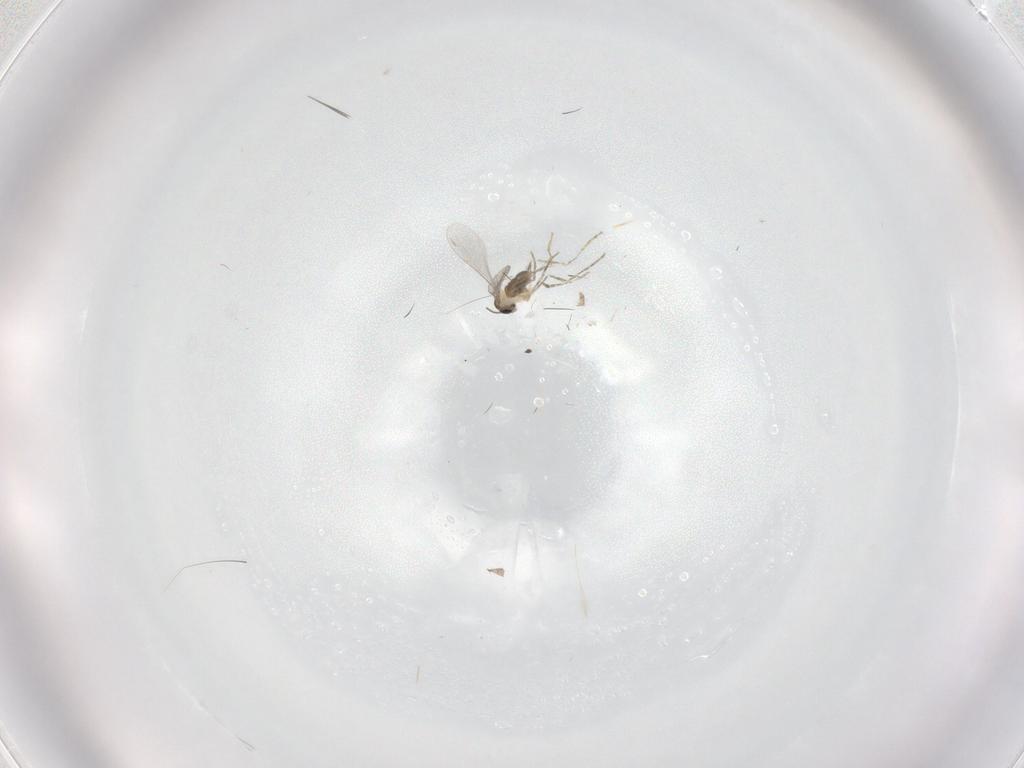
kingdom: Animalia
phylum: Arthropoda
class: Insecta
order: Diptera
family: Cecidomyiidae
